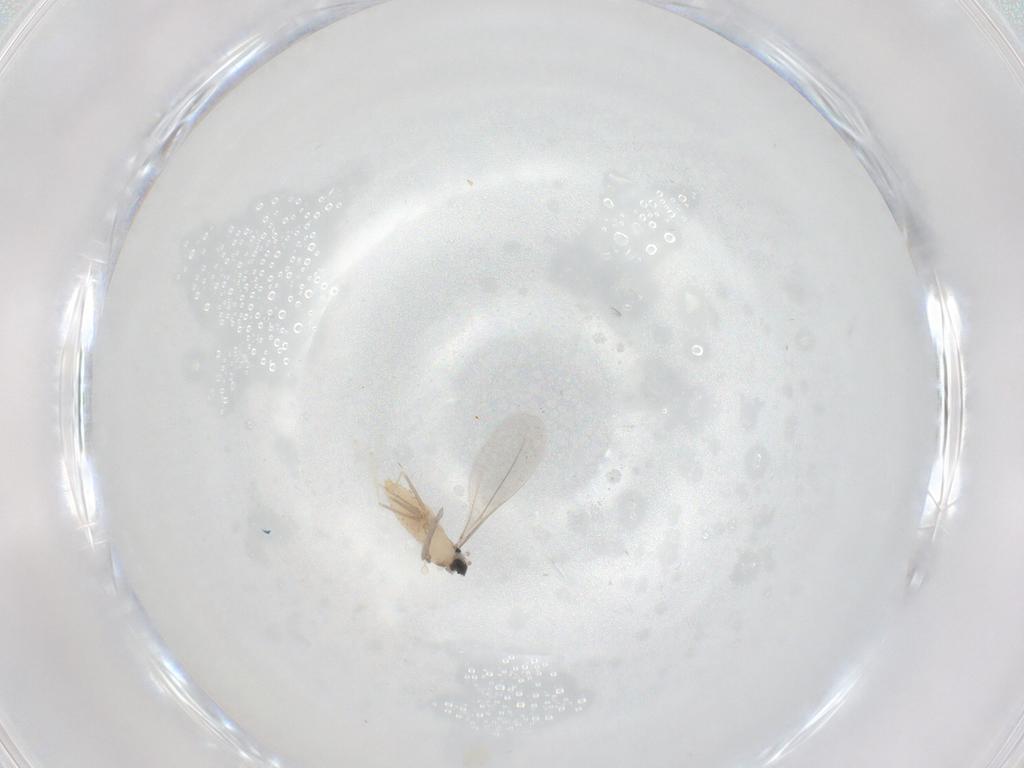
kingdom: Animalia
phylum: Arthropoda
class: Insecta
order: Diptera
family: Cecidomyiidae
